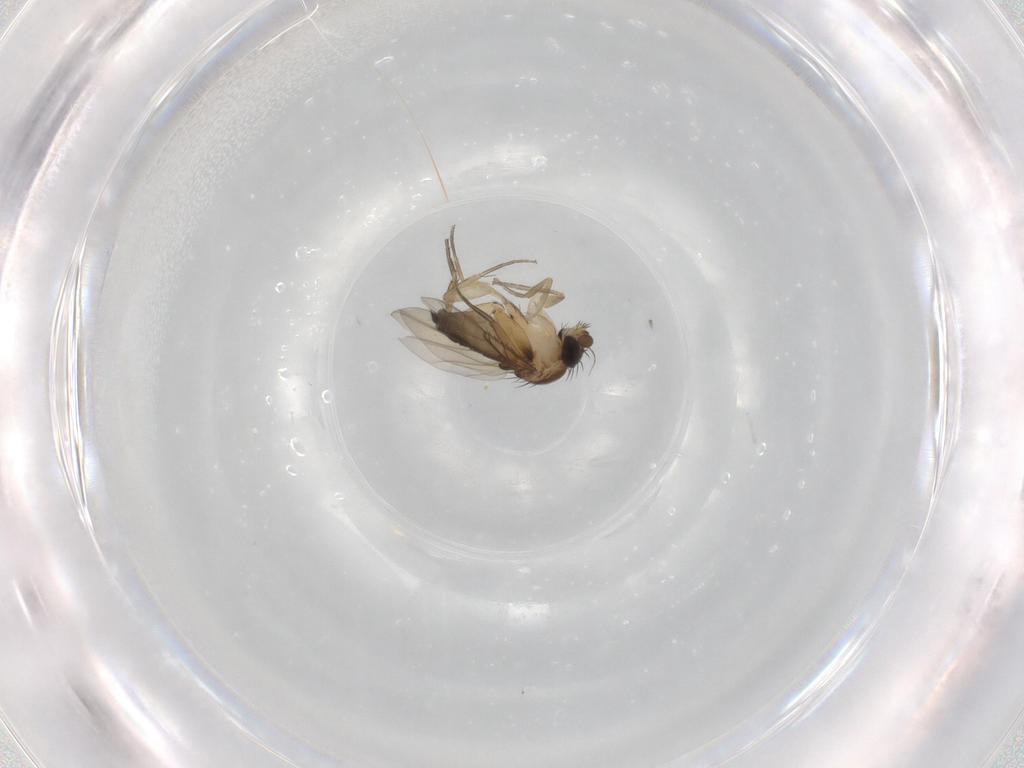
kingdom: Animalia
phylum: Arthropoda
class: Insecta
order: Diptera
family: Phoridae
